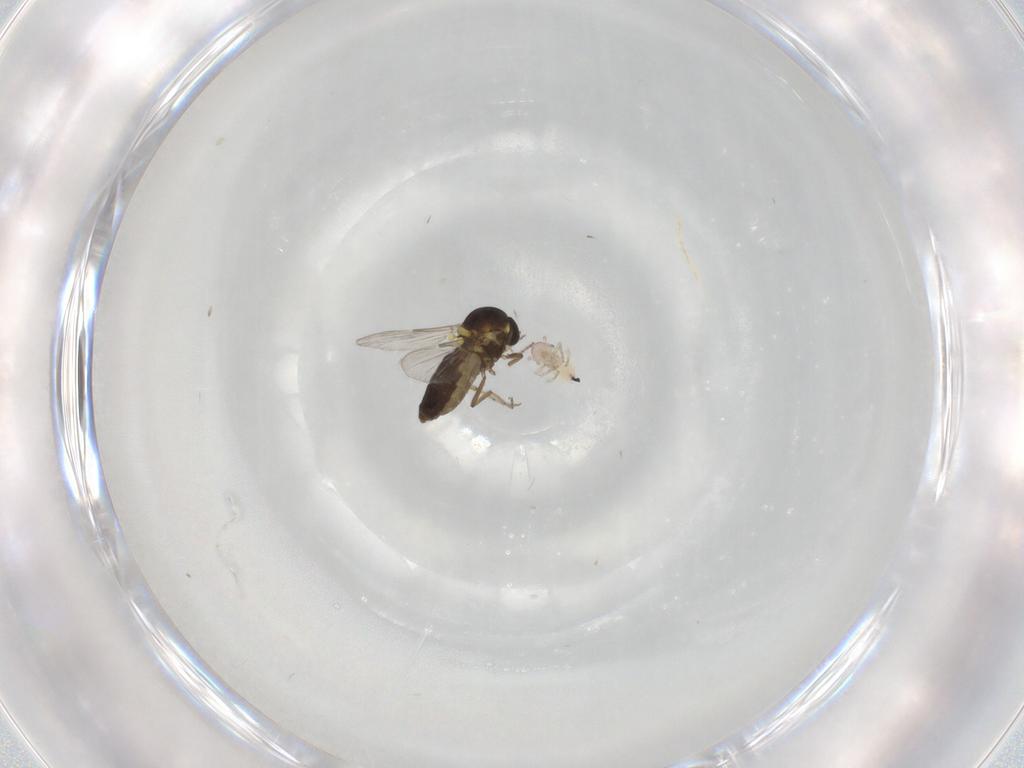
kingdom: Animalia
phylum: Arthropoda
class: Insecta
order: Diptera
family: Ceratopogonidae
